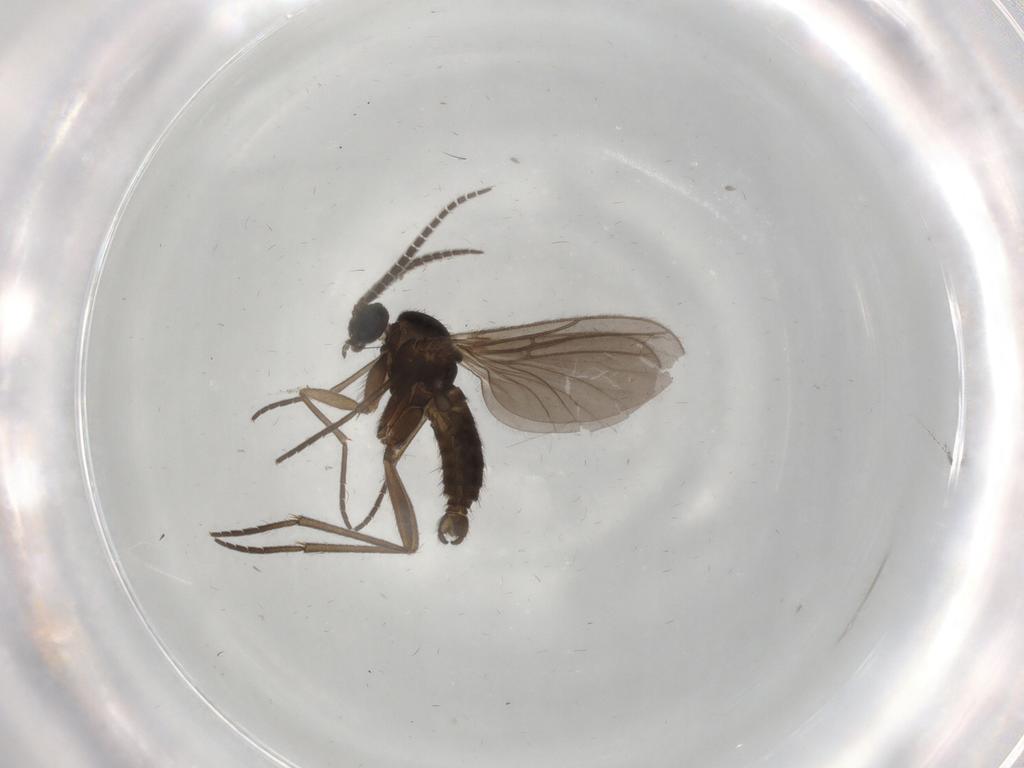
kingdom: Animalia
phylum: Arthropoda
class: Insecta
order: Diptera
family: Sciaridae
